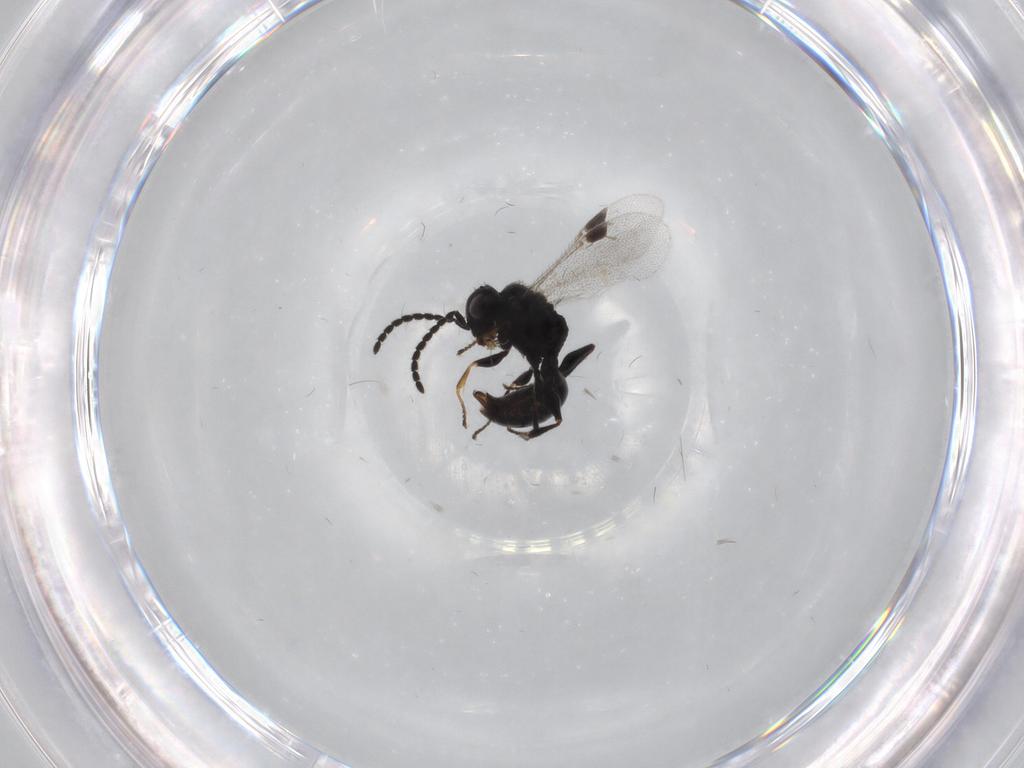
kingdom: Animalia
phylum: Arthropoda
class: Insecta
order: Hymenoptera
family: Dryinidae
